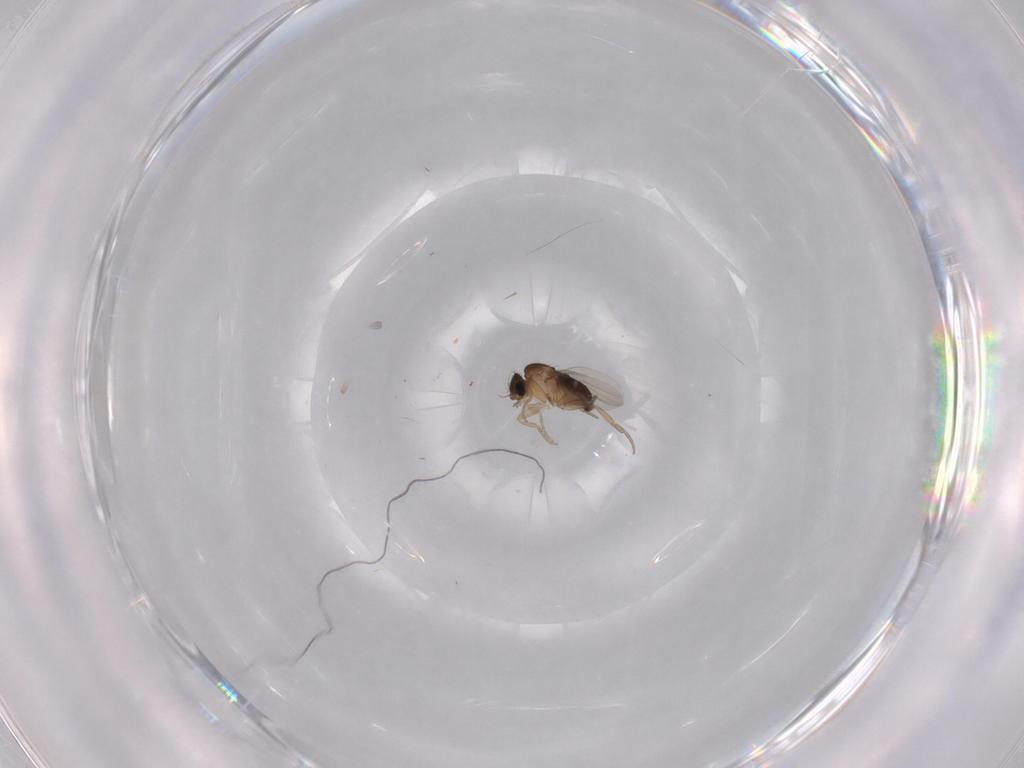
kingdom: Animalia
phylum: Arthropoda
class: Insecta
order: Diptera
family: Phoridae
